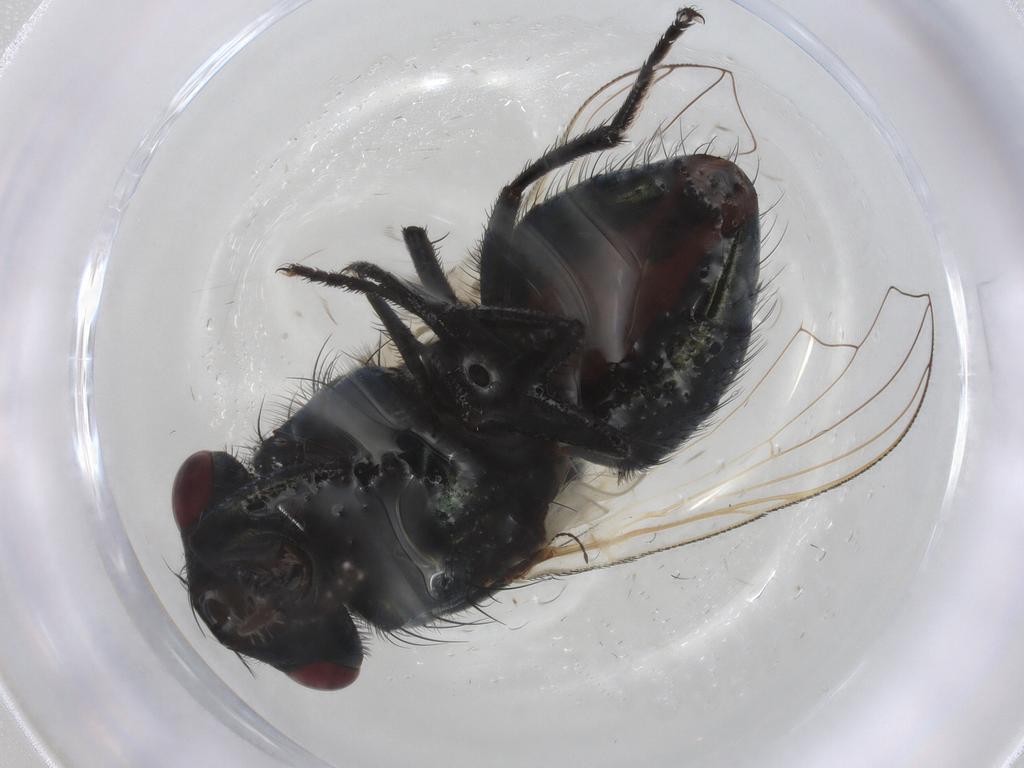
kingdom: Animalia
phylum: Arthropoda
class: Insecta
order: Diptera
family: Muscidae
